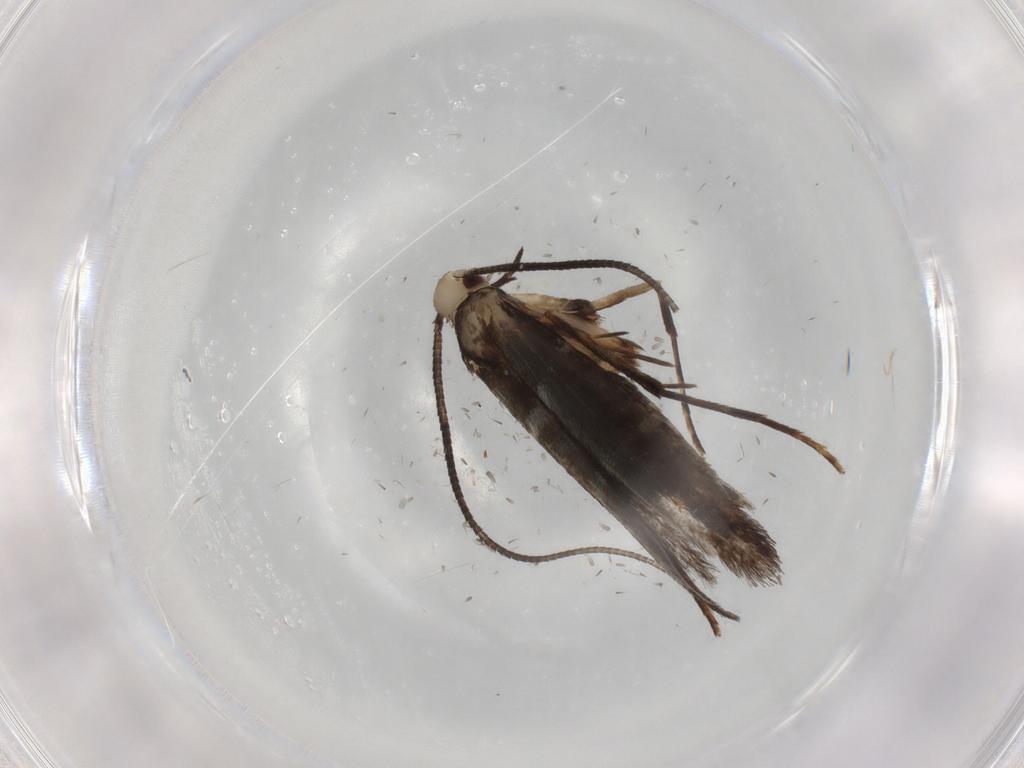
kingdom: Animalia
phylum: Arthropoda
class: Insecta
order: Lepidoptera
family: Gracillariidae
